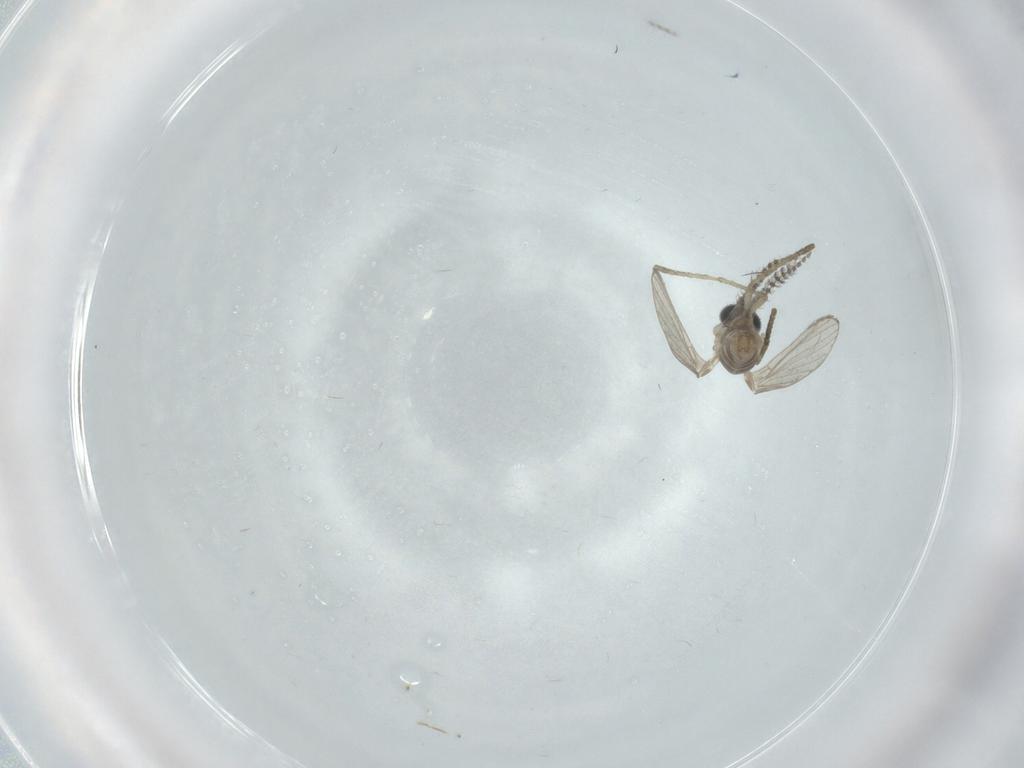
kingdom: Animalia
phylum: Arthropoda
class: Insecta
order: Diptera
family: Psychodidae
